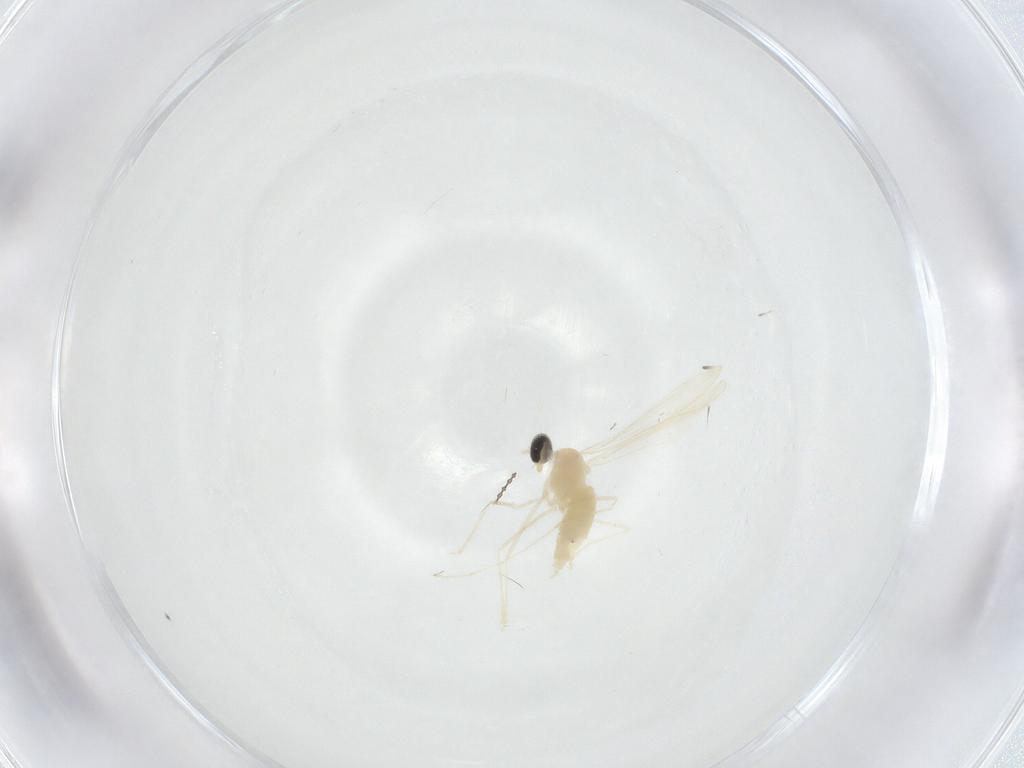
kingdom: Animalia
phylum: Arthropoda
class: Insecta
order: Diptera
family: Cecidomyiidae
